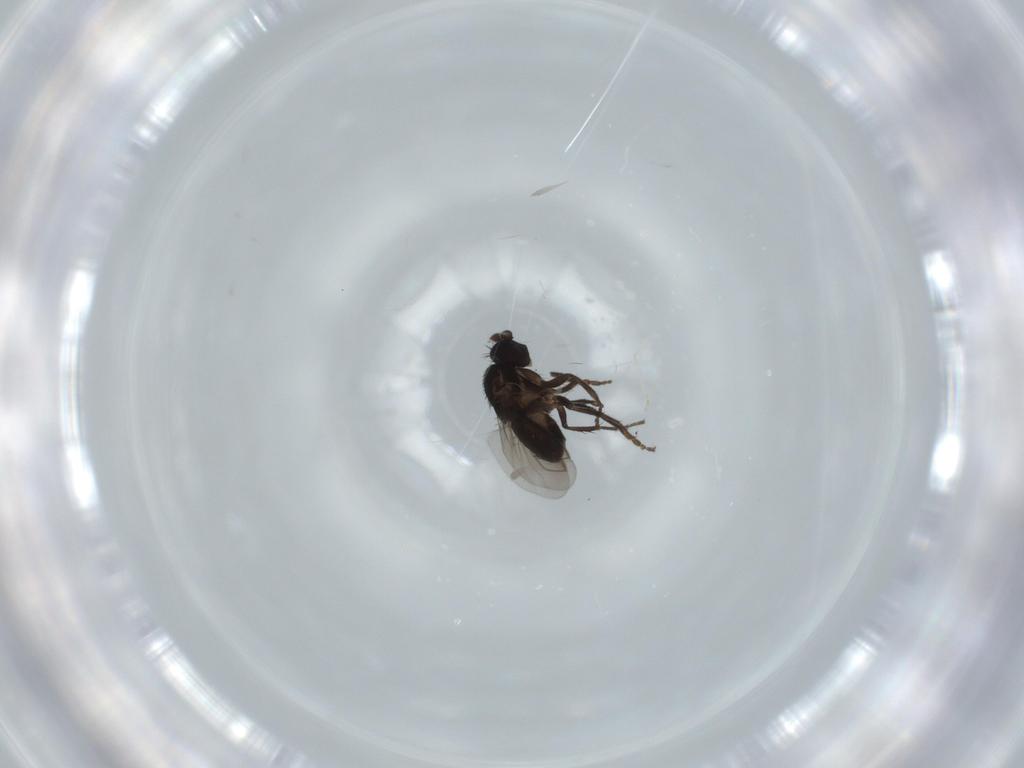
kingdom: Animalia
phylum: Arthropoda
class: Insecta
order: Diptera
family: Sphaeroceridae
